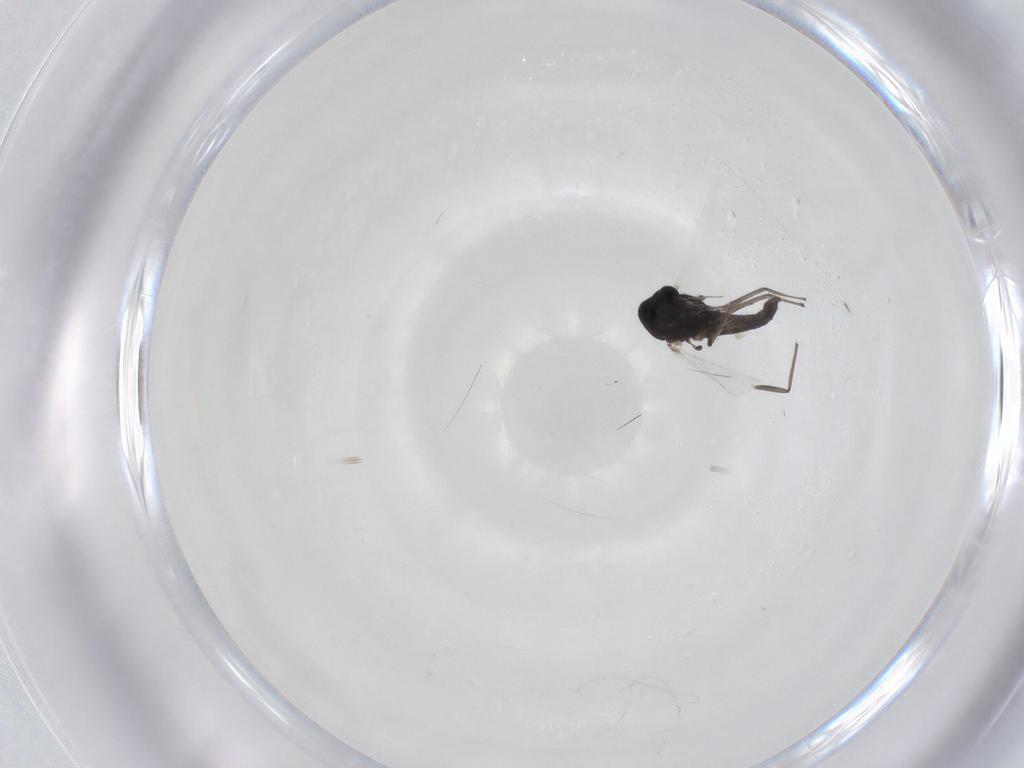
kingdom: Animalia
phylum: Arthropoda
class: Insecta
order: Diptera
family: Chironomidae
